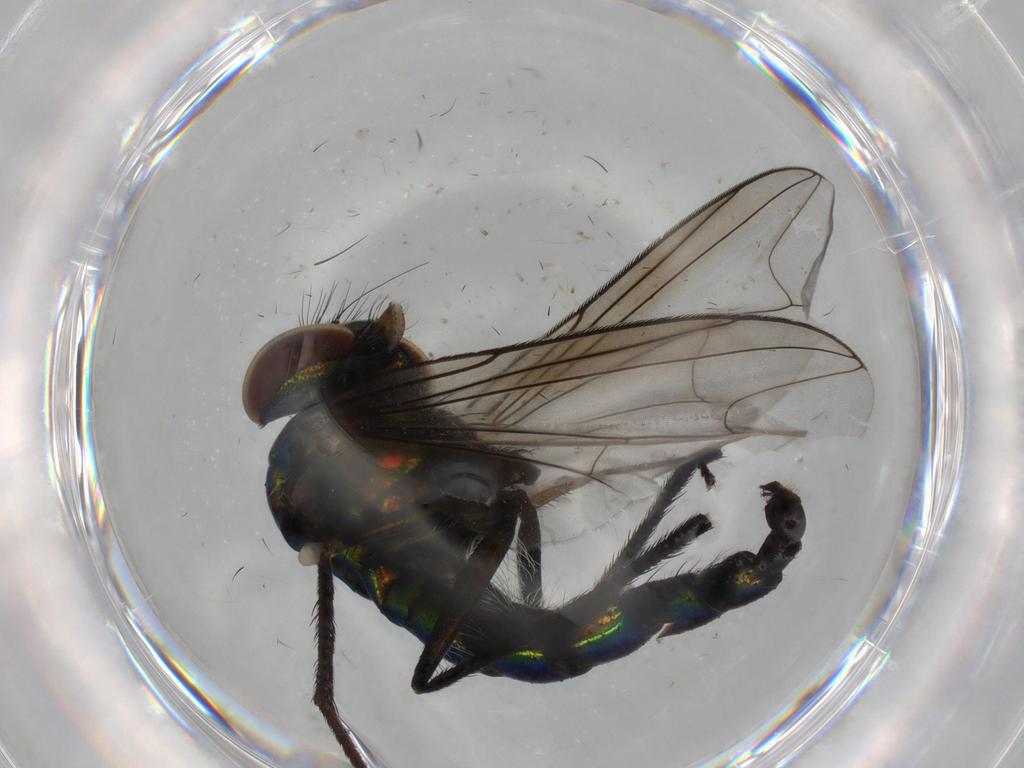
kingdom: Animalia
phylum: Arthropoda
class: Insecta
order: Diptera
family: Dolichopodidae
